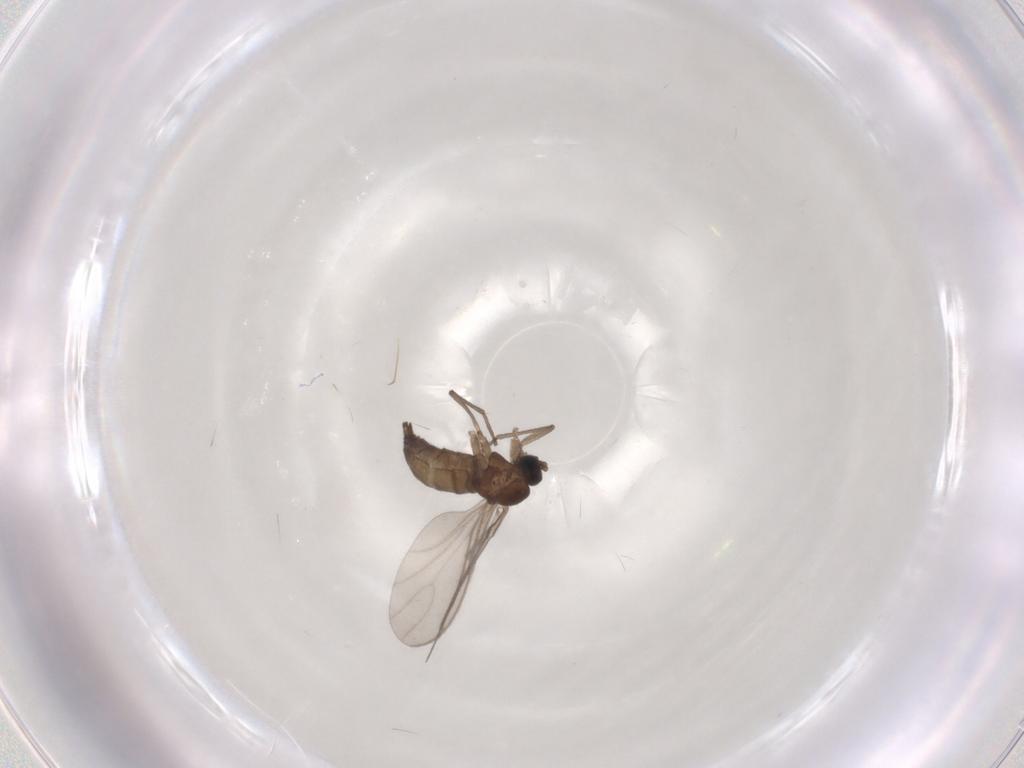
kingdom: Animalia
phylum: Arthropoda
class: Insecta
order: Diptera
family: Sciaridae
